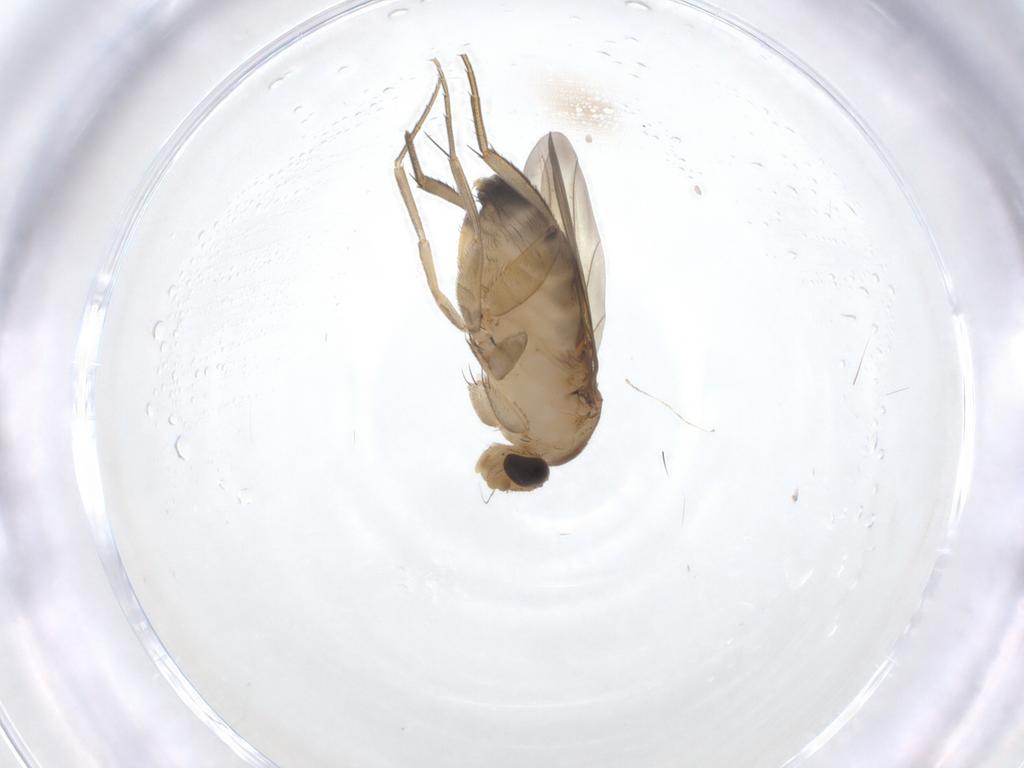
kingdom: Animalia
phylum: Arthropoda
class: Insecta
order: Diptera
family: Phoridae
